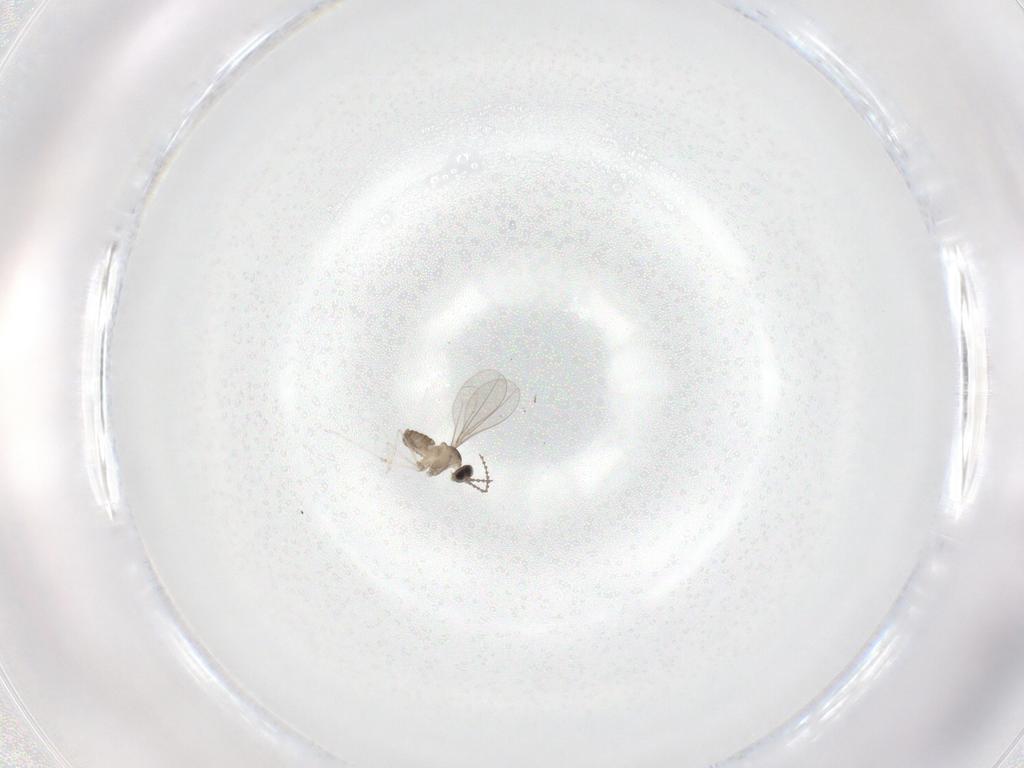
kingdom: Animalia
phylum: Arthropoda
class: Insecta
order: Diptera
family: Cecidomyiidae
